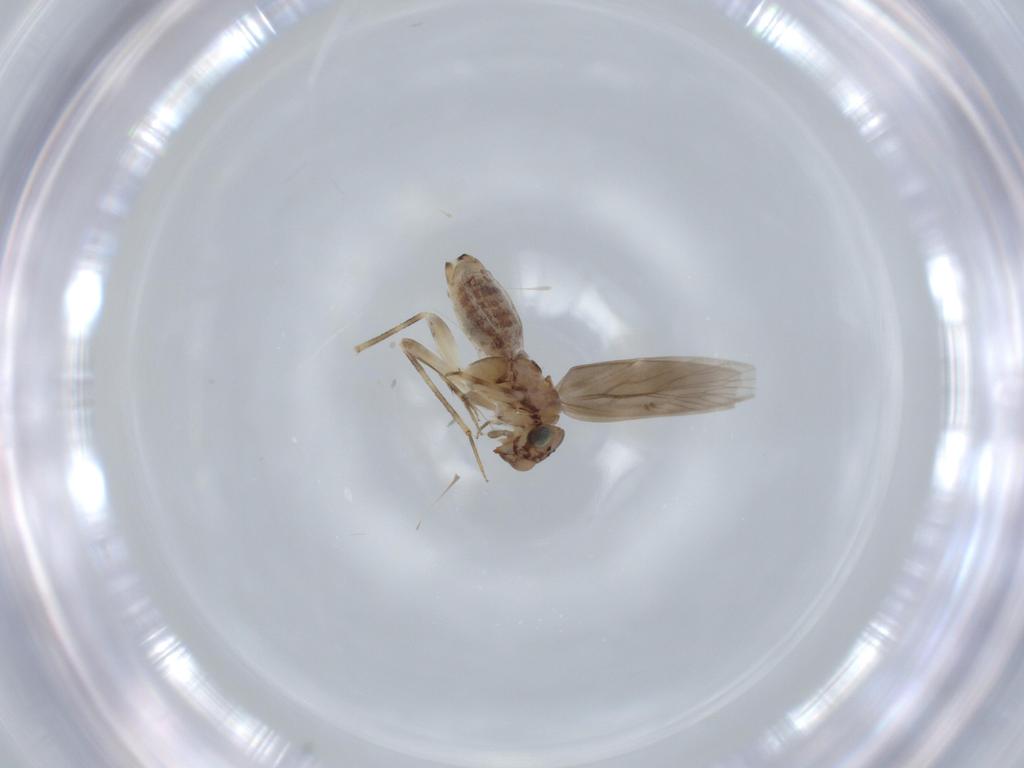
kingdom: Animalia
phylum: Arthropoda
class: Insecta
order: Psocodea
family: Lepidopsocidae
